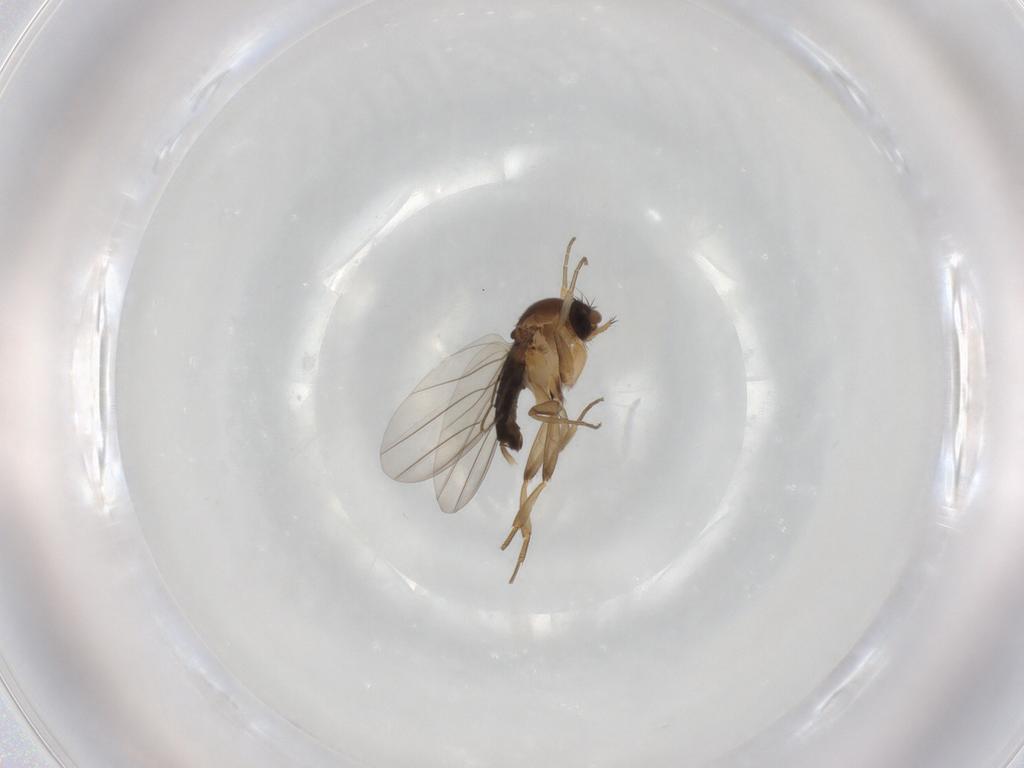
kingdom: Animalia
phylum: Arthropoda
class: Insecta
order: Diptera
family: Phoridae
